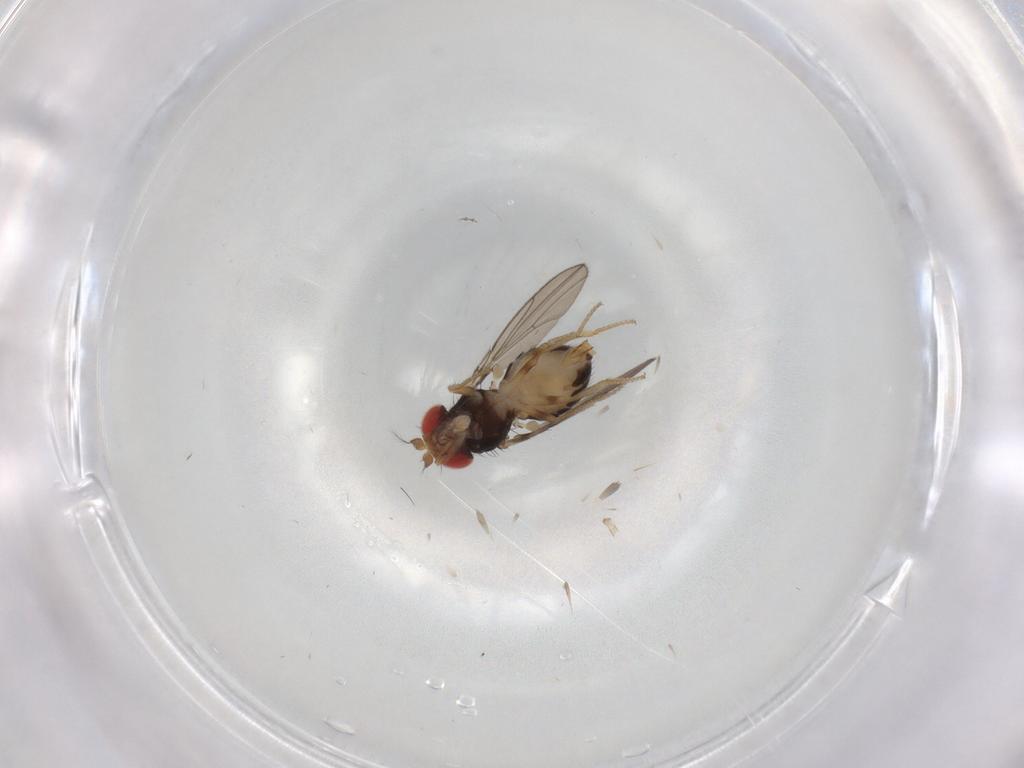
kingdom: Animalia
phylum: Arthropoda
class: Insecta
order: Diptera
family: Drosophilidae
